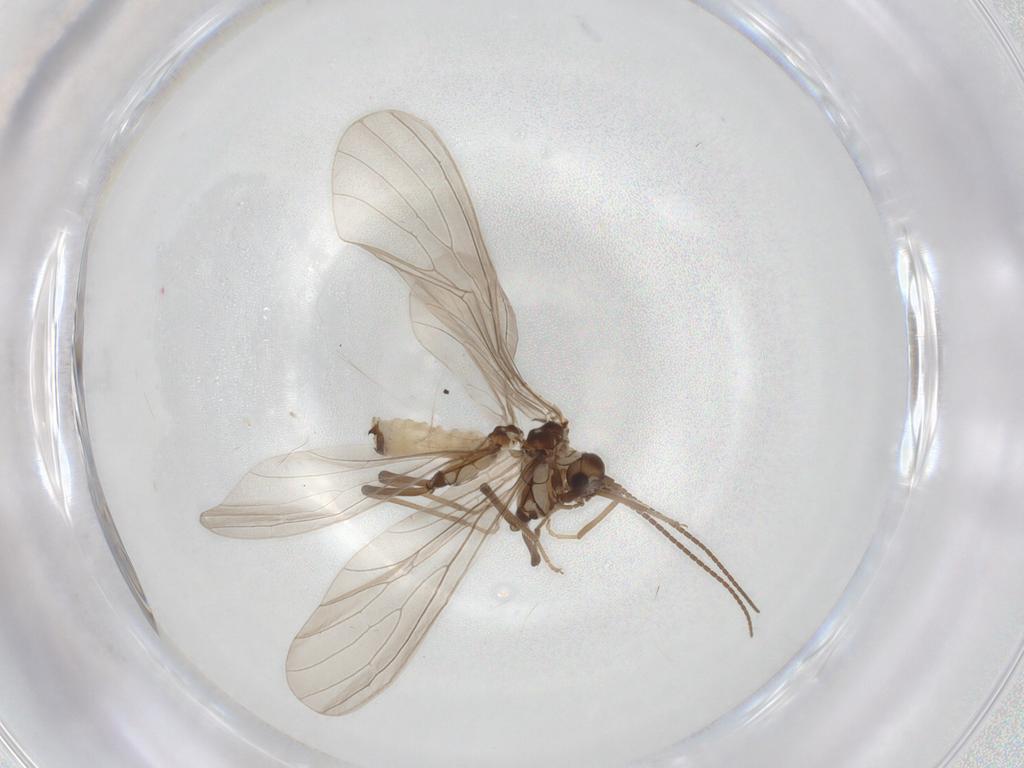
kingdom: Animalia
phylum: Arthropoda
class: Insecta
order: Neuroptera
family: Coniopterygidae
